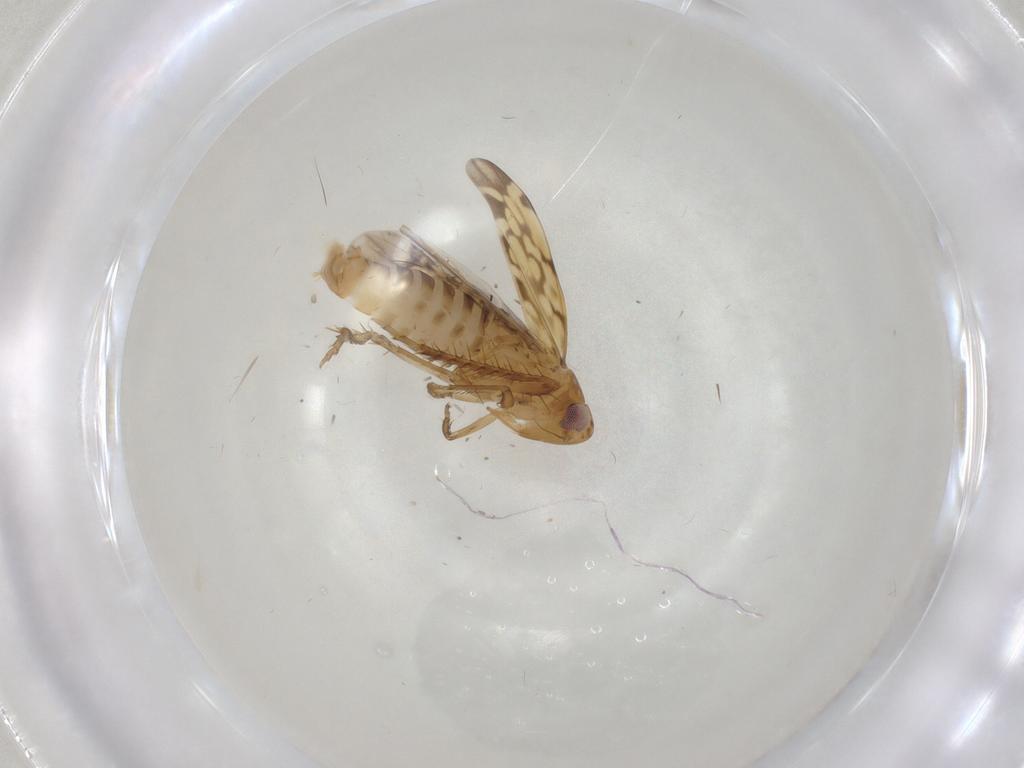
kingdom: Animalia
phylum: Arthropoda
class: Insecta
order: Hemiptera
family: Cicadellidae
